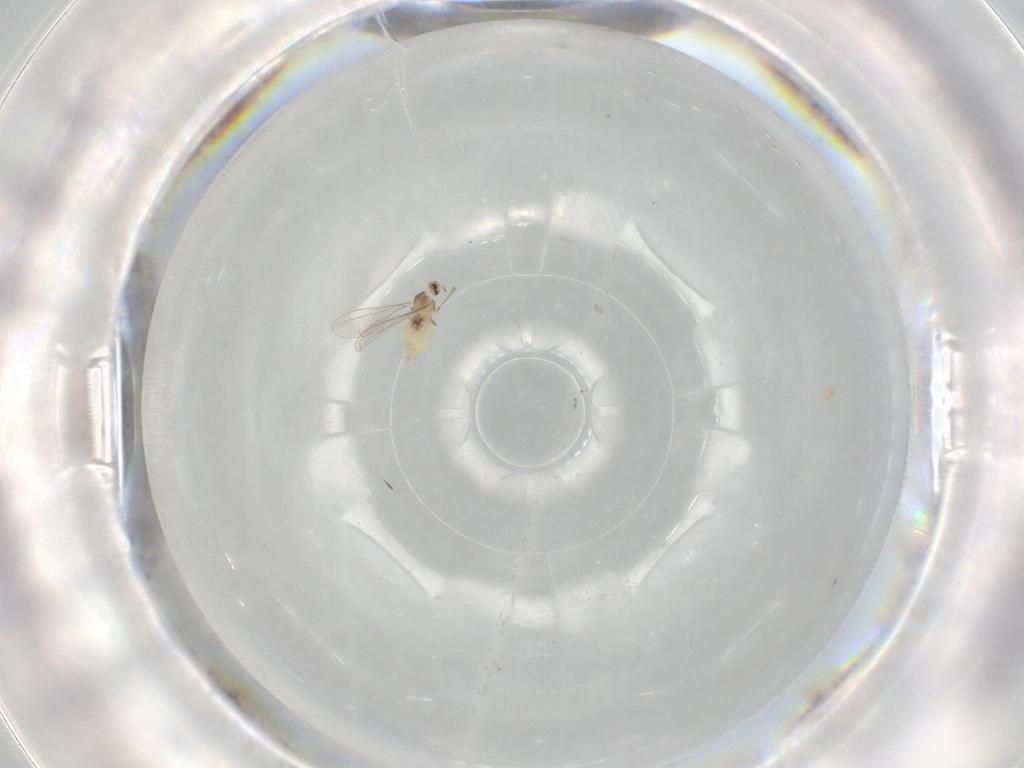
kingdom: Animalia
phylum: Arthropoda
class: Insecta
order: Diptera
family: Cecidomyiidae
